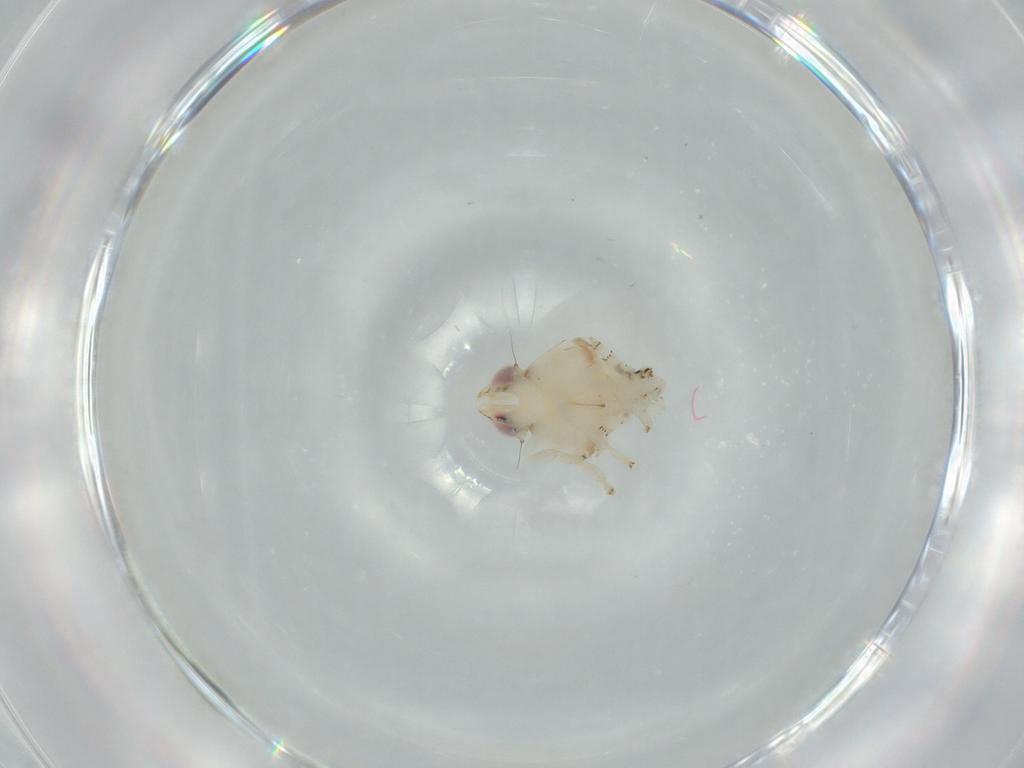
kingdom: Animalia
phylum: Arthropoda
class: Insecta
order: Hemiptera
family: Nogodinidae
